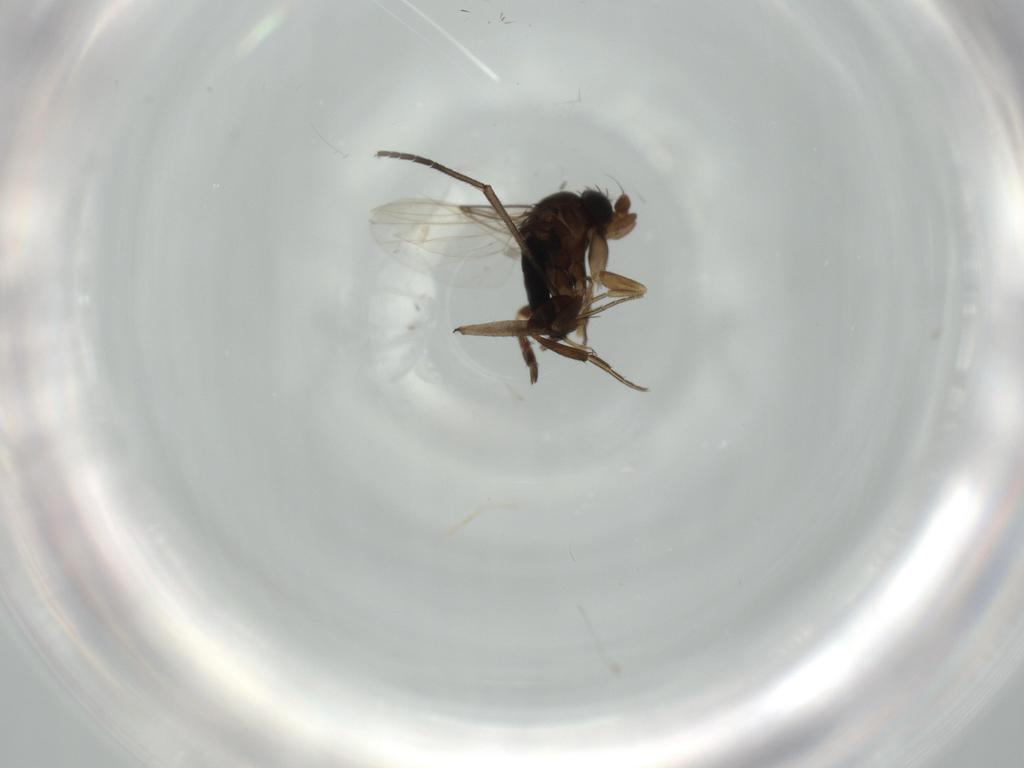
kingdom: Animalia
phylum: Arthropoda
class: Insecta
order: Diptera
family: Phoridae
